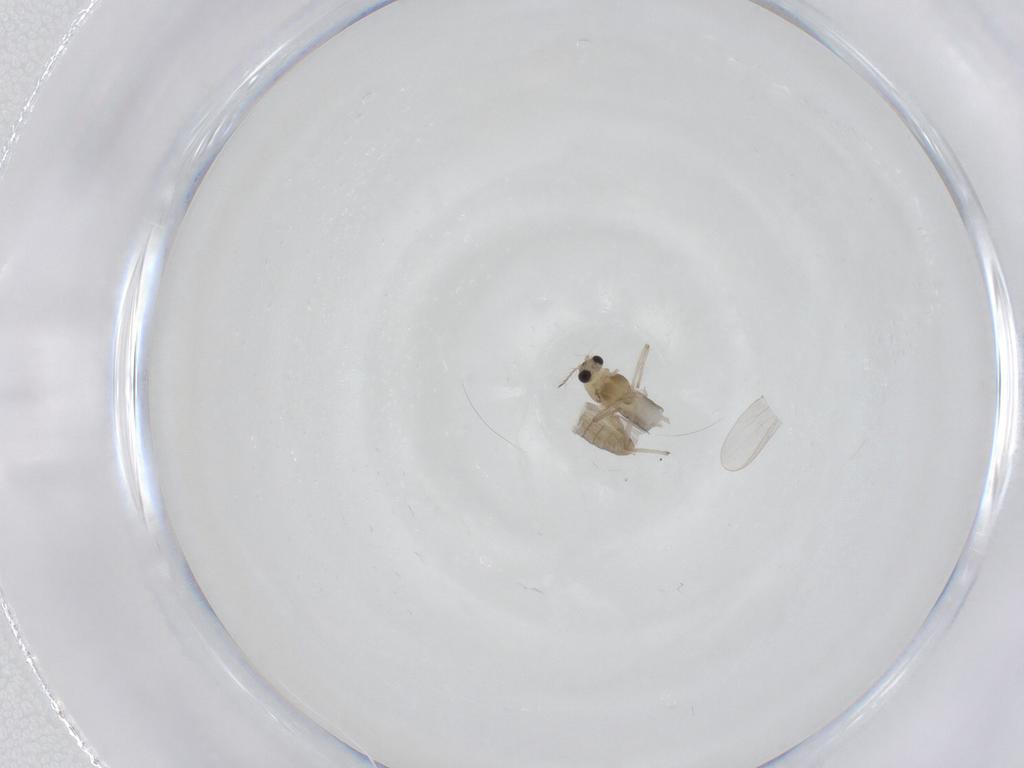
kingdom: Animalia
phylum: Arthropoda
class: Insecta
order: Diptera
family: Chironomidae
